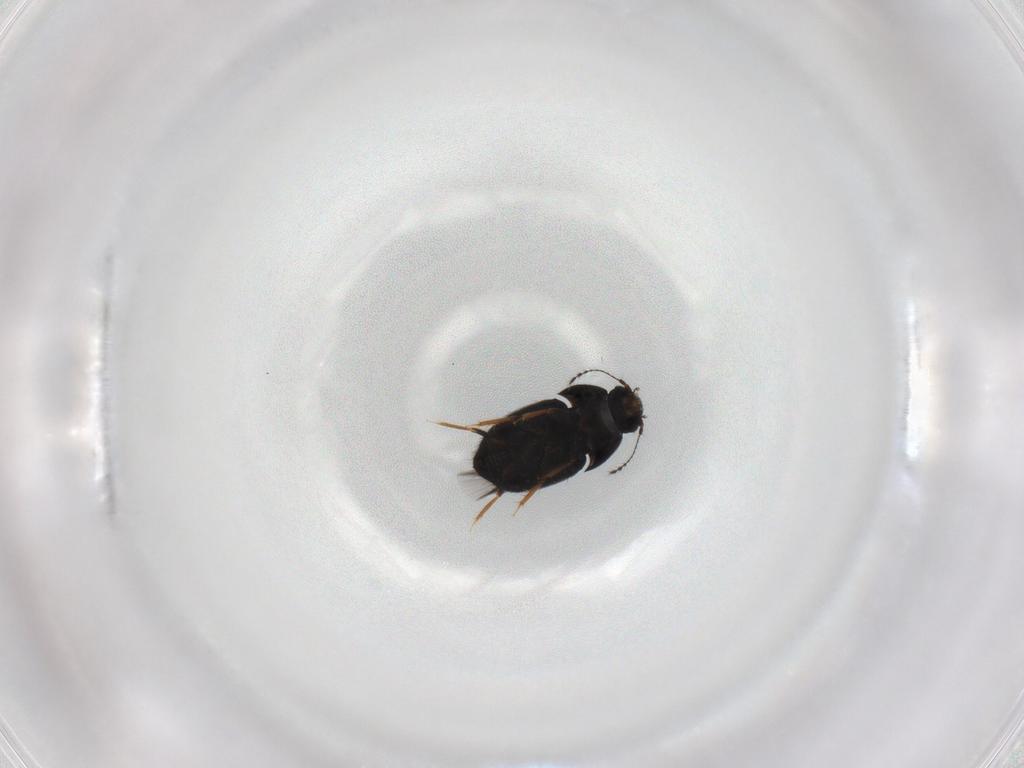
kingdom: Animalia
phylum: Arthropoda
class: Insecta
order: Coleoptera
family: Ptiliidae
